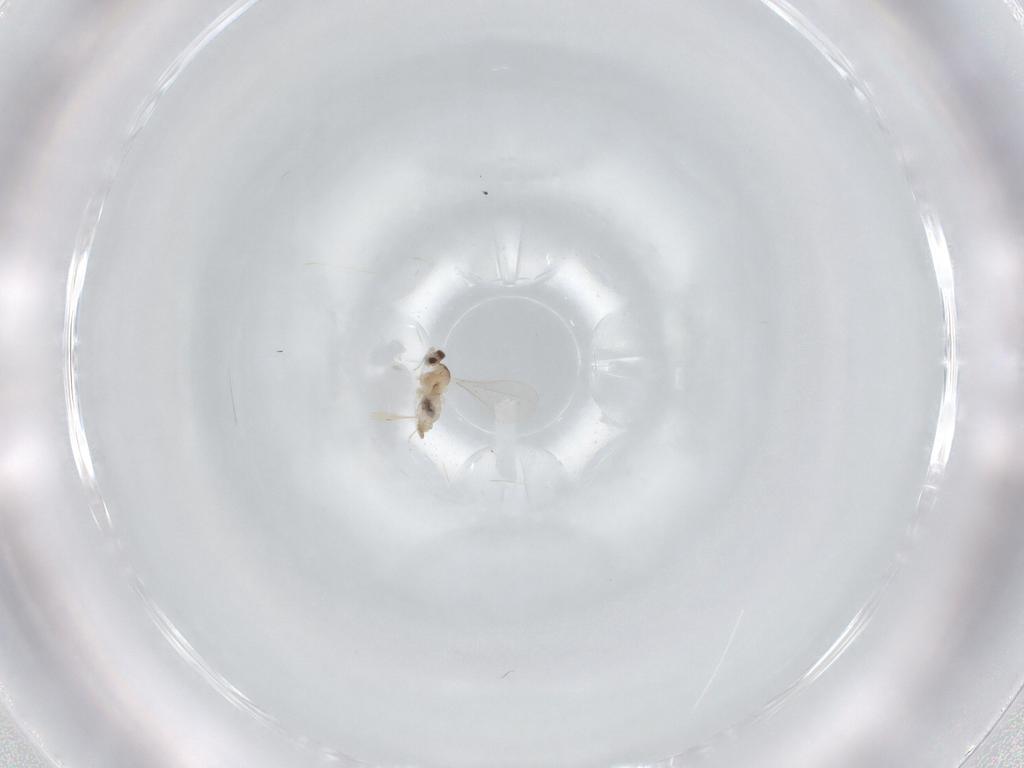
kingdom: Animalia
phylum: Arthropoda
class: Insecta
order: Diptera
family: Cecidomyiidae
